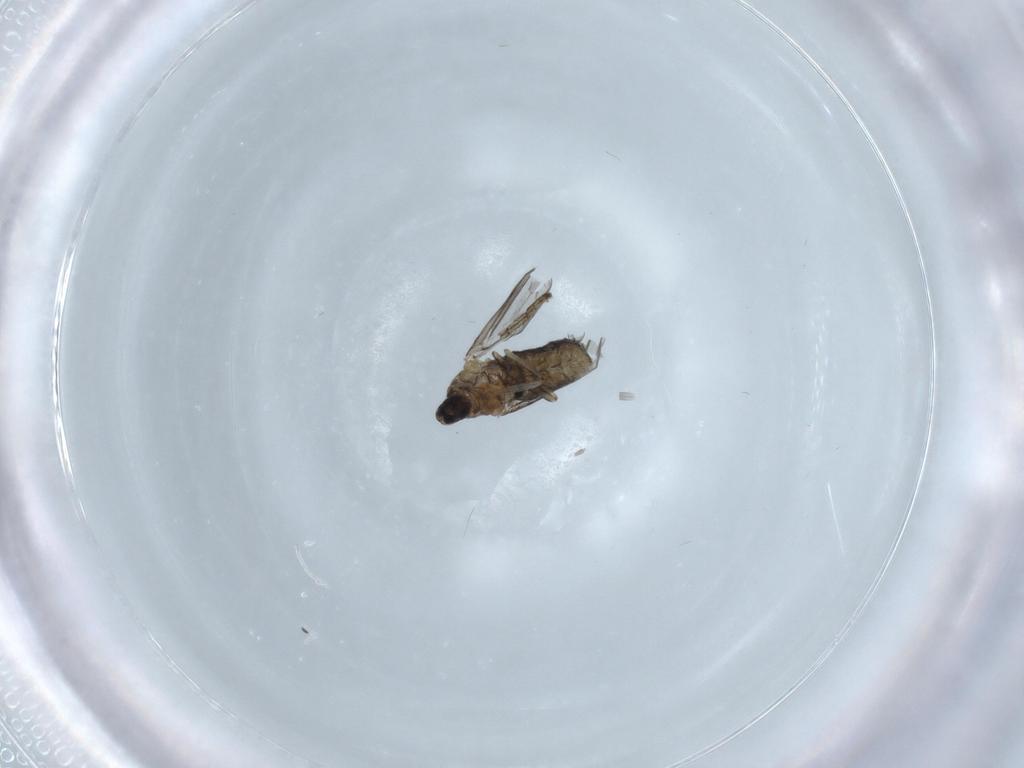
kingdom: Animalia
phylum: Arthropoda
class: Insecta
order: Diptera
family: Cecidomyiidae
